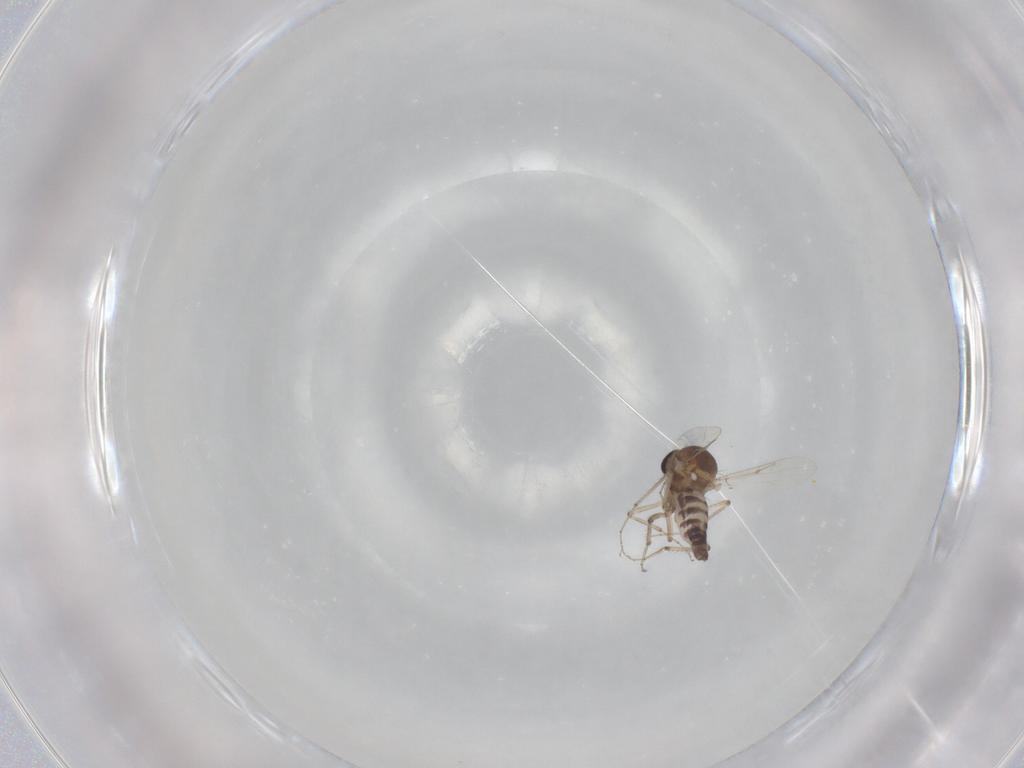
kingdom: Animalia
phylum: Arthropoda
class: Insecta
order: Diptera
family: Ceratopogonidae
